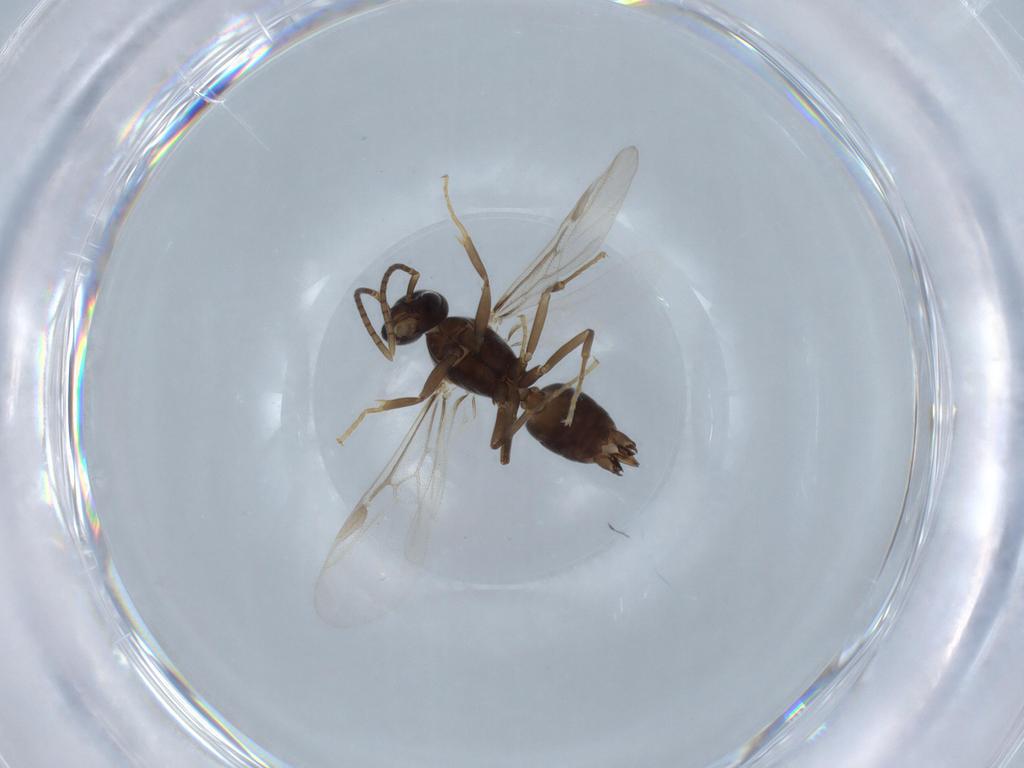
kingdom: Animalia
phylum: Arthropoda
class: Insecta
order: Hymenoptera
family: Formicidae
